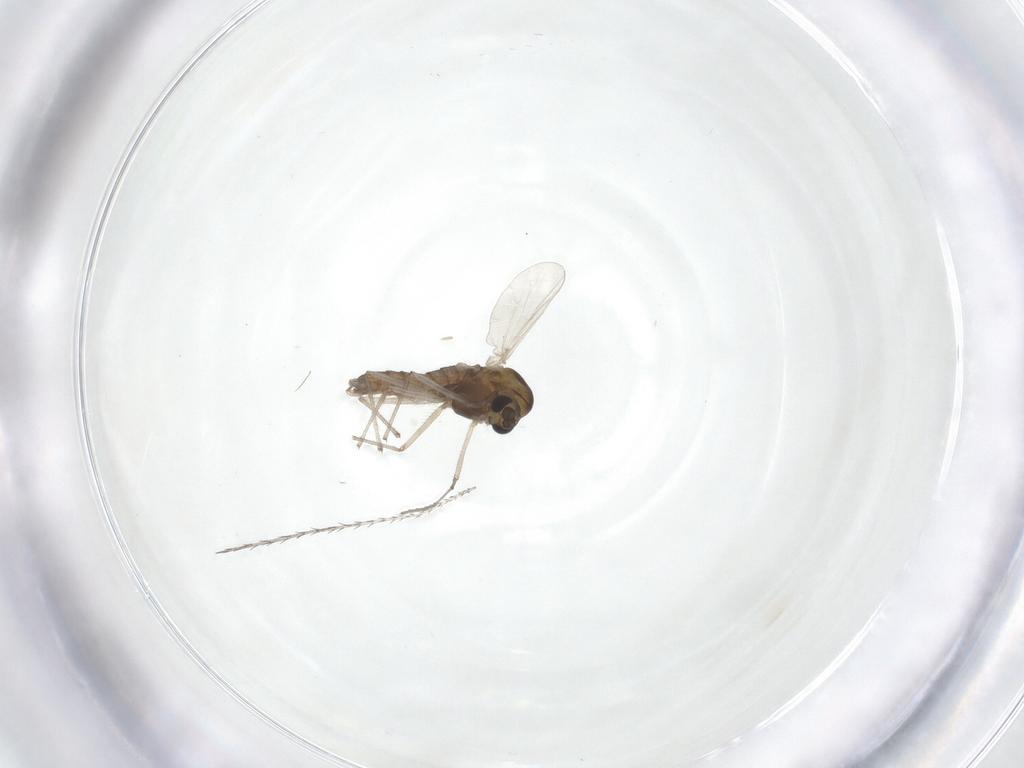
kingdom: Animalia
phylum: Arthropoda
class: Insecta
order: Diptera
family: Chironomidae
